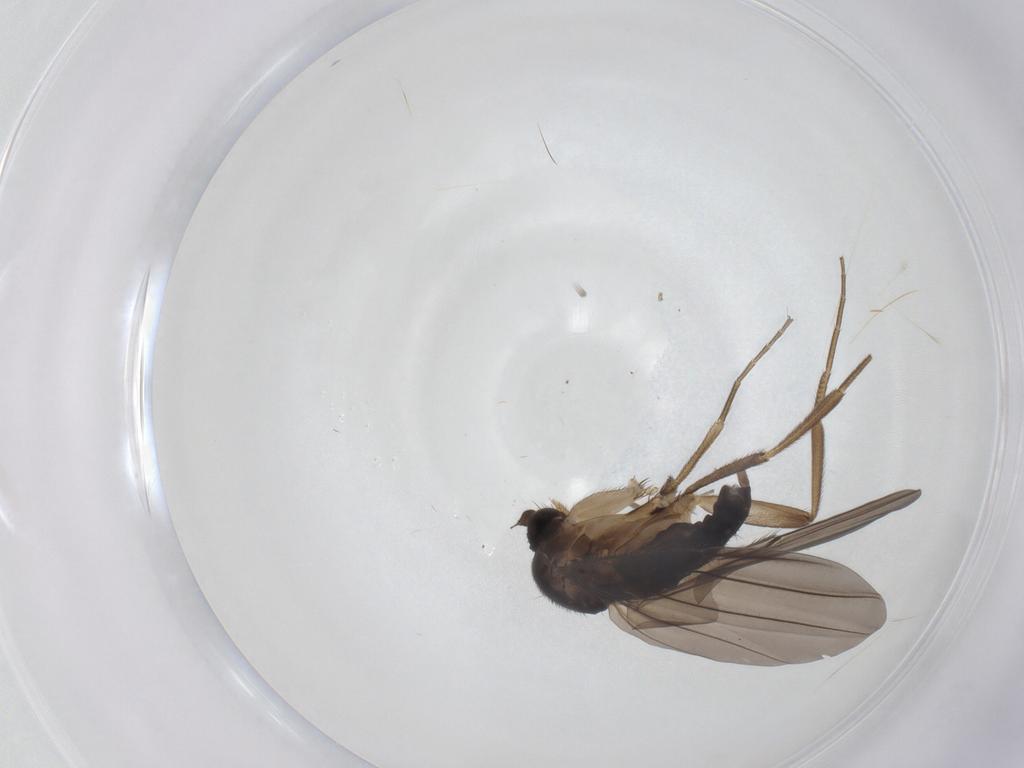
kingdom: Animalia
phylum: Arthropoda
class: Insecta
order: Diptera
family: Phoridae
